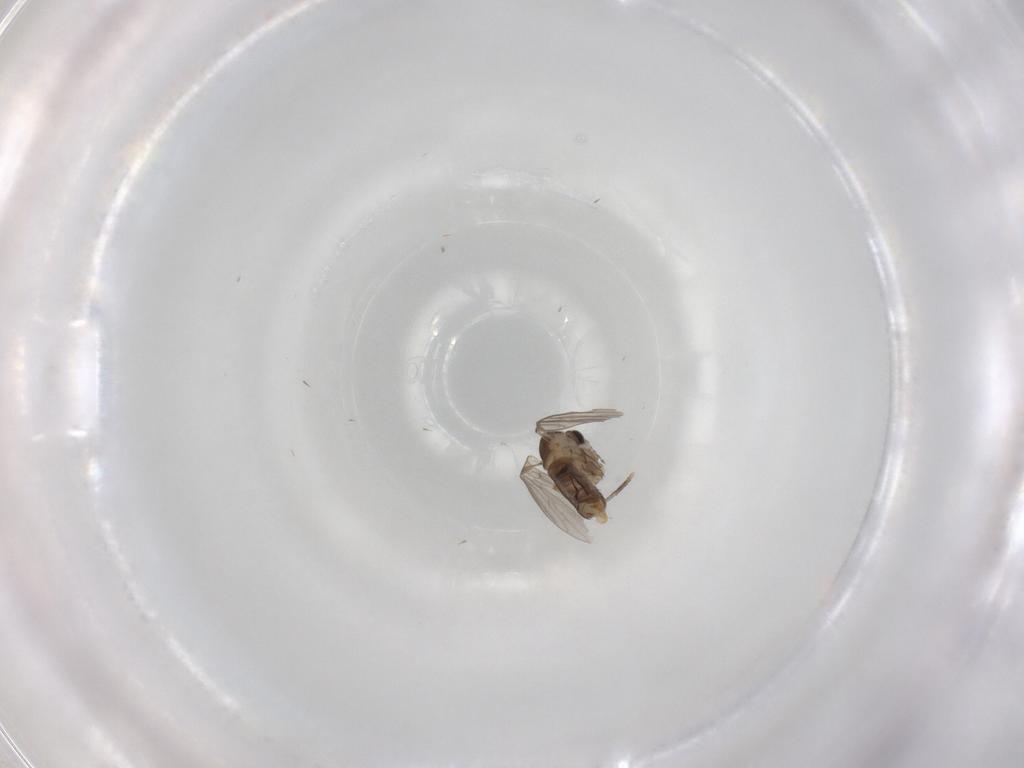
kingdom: Animalia
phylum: Arthropoda
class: Insecta
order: Diptera
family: Psychodidae
